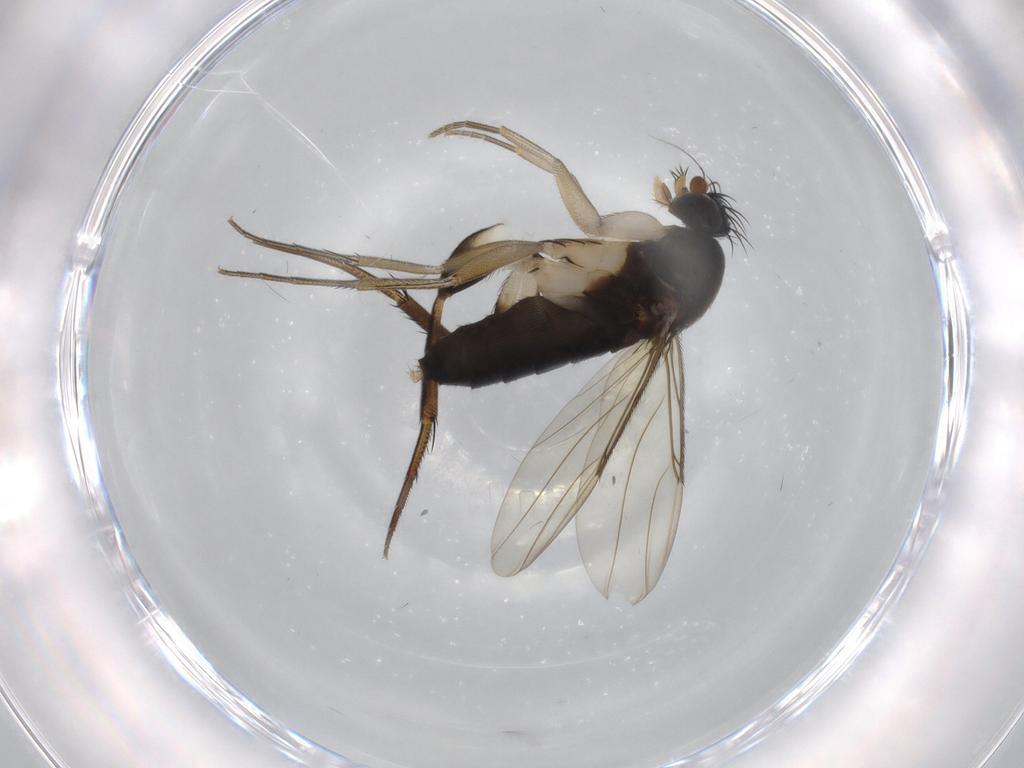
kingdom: Animalia
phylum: Arthropoda
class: Insecta
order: Diptera
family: Phoridae
